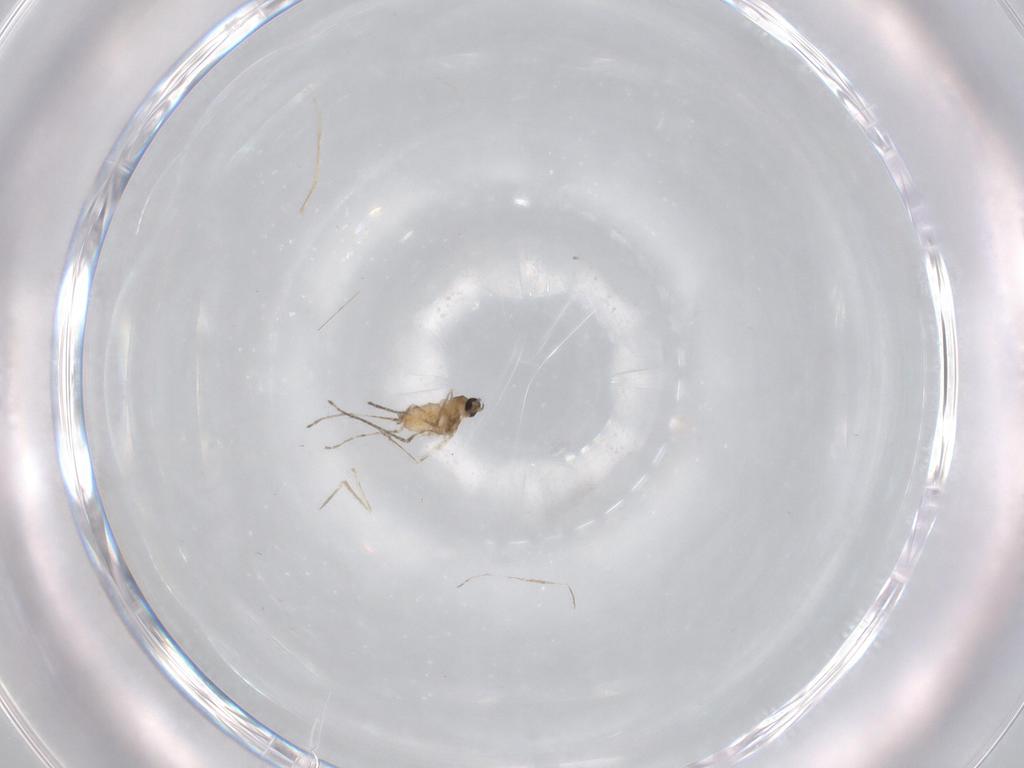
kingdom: Animalia
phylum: Arthropoda
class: Insecta
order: Diptera
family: Cecidomyiidae
